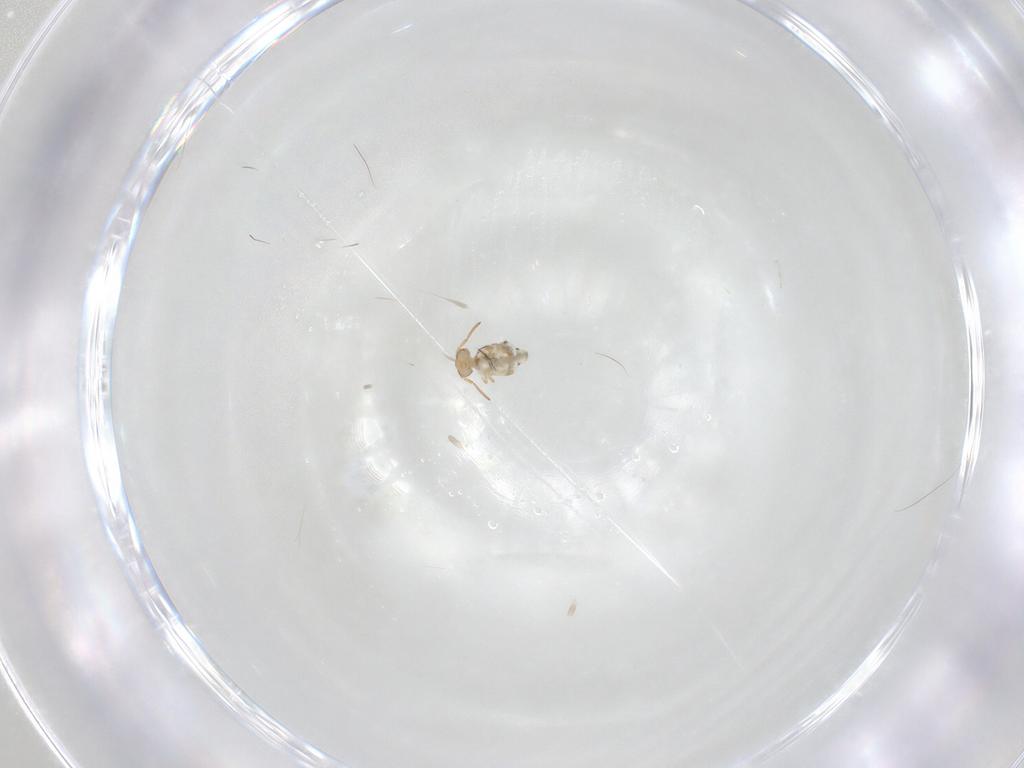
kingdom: Animalia
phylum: Arthropoda
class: Collembola
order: Symphypleona
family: Bourletiellidae
